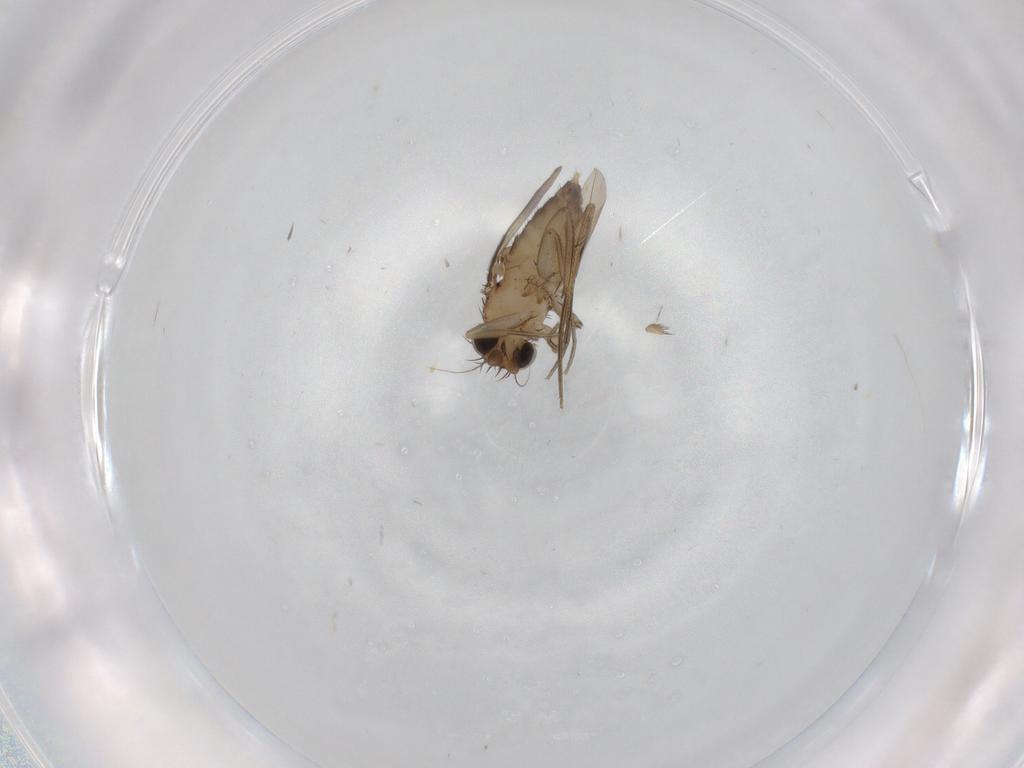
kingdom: Animalia
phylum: Arthropoda
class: Insecta
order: Diptera
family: Phoridae
